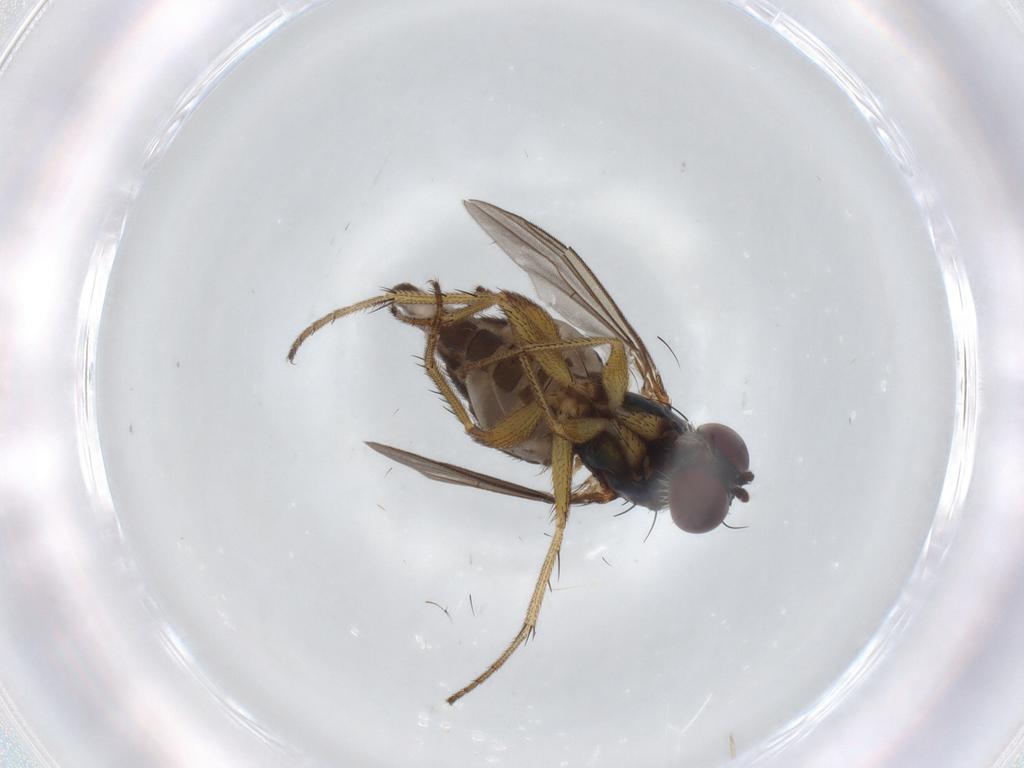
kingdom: Animalia
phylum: Arthropoda
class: Insecta
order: Diptera
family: Dolichopodidae
